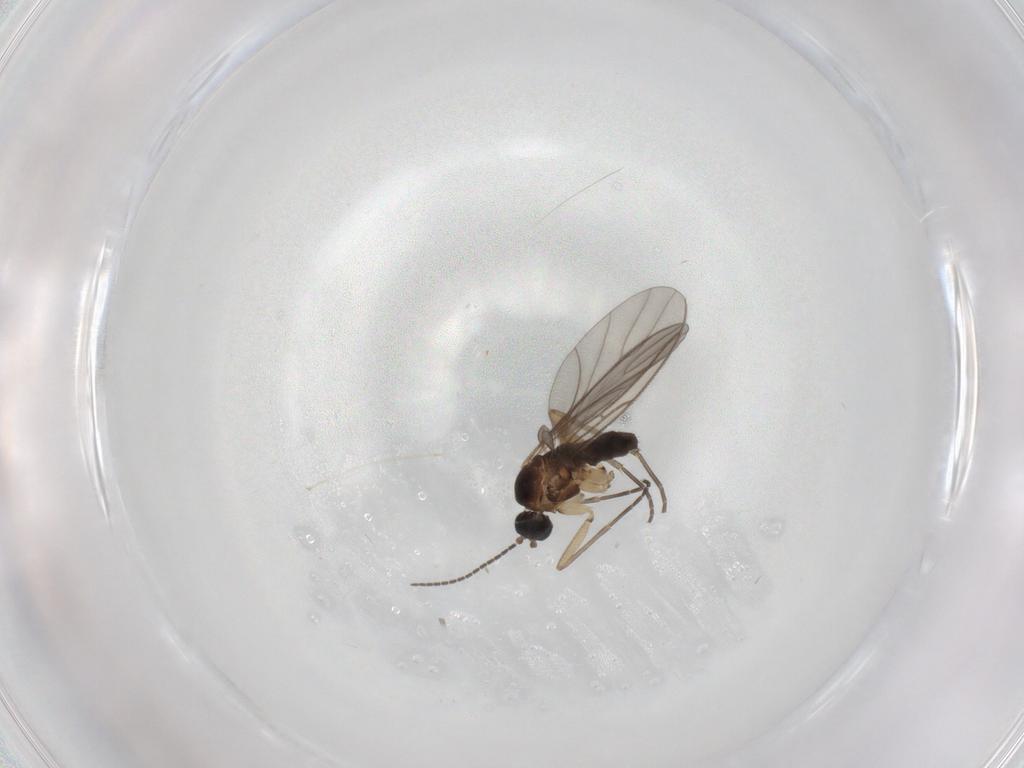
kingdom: Animalia
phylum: Arthropoda
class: Insecta
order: Diptera
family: Sciaridae
